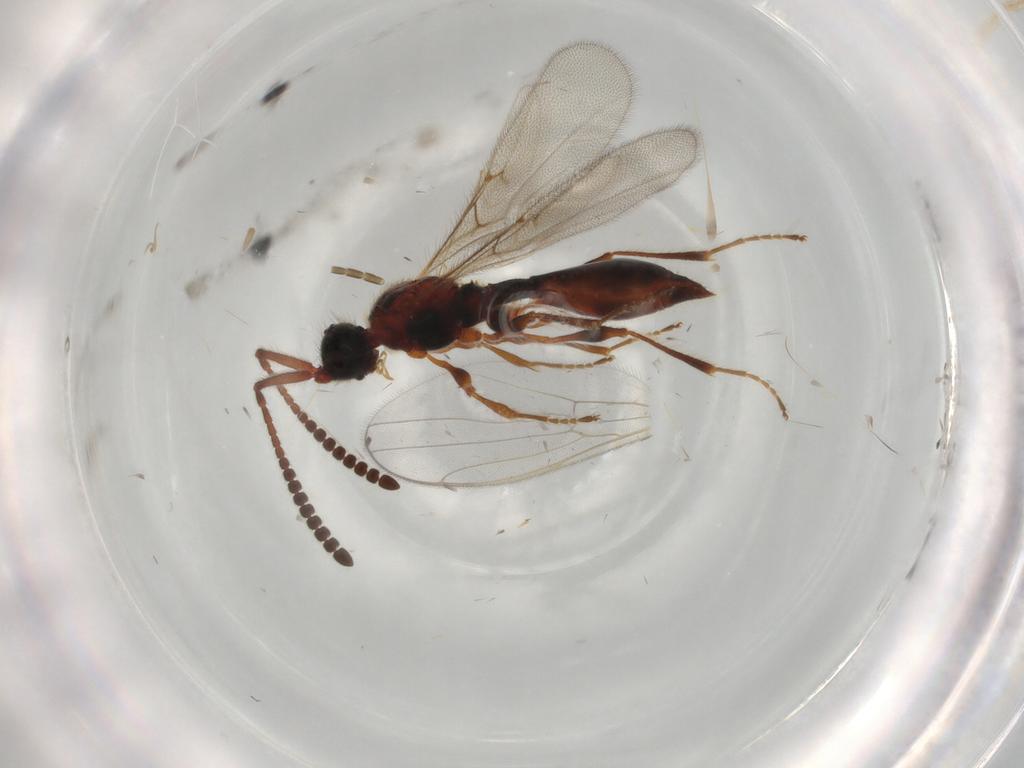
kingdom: Animalia
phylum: Arthropoda
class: Insecta
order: Hymenoptera
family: Diapriidae
